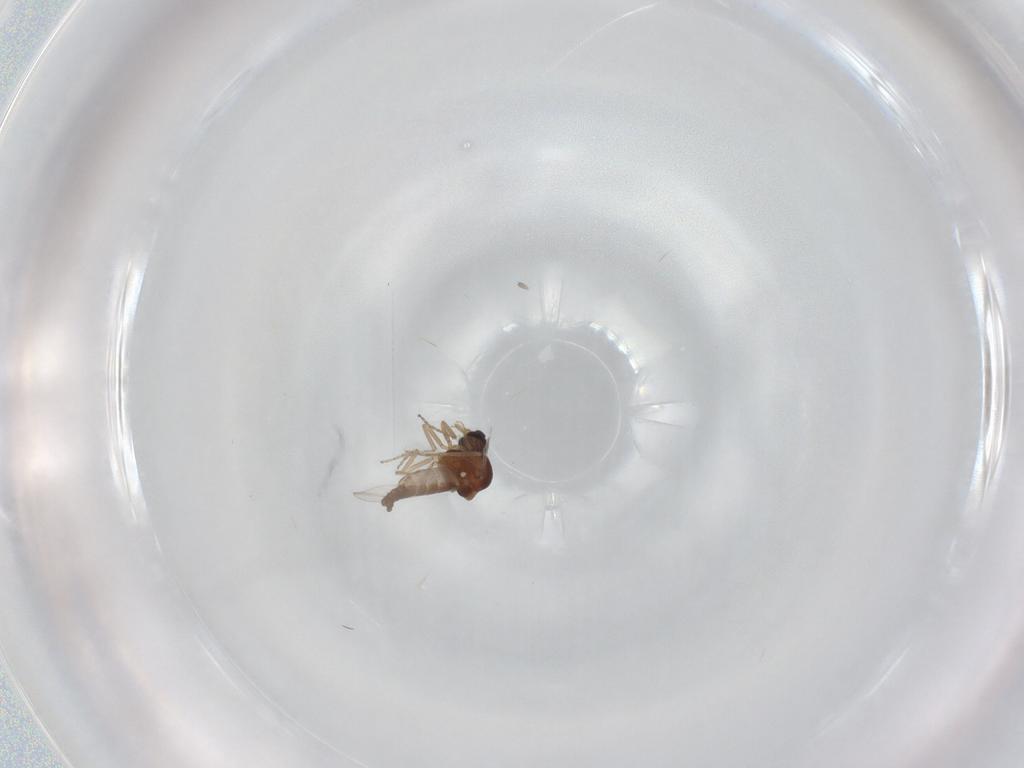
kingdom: Animalia
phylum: Arthropoda
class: Insecta
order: Diptera
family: Ceratopogonidae
